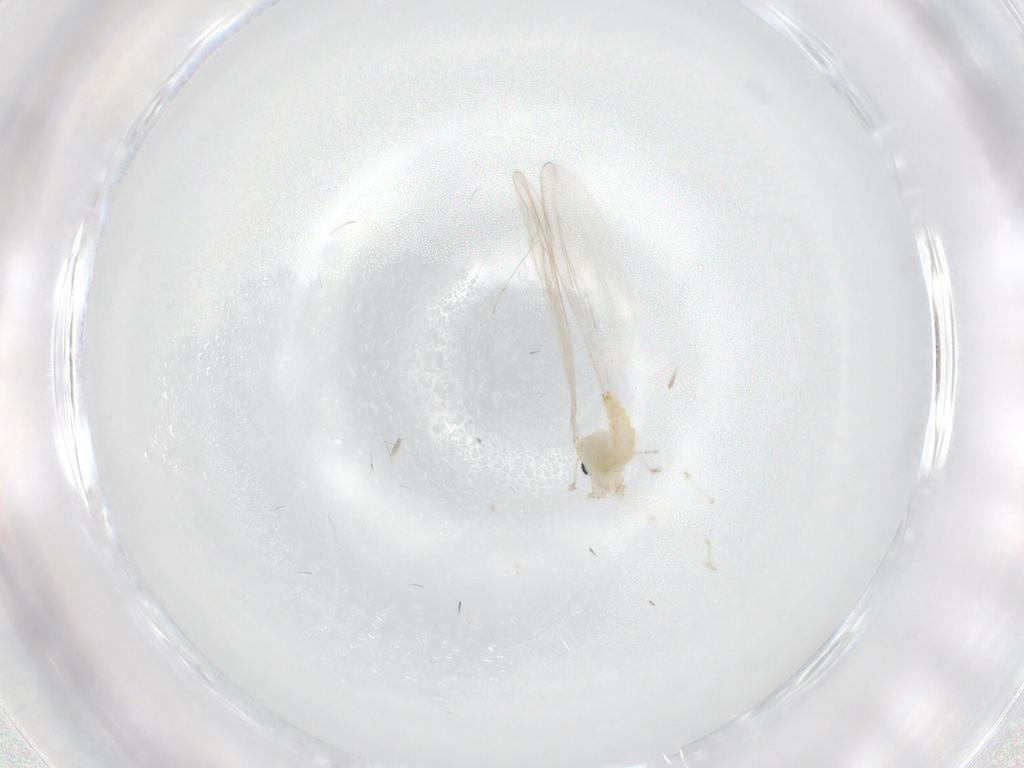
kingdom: Animalia
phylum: Arthropoda
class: Insecta
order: Diptera
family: Cecidomyiidae
